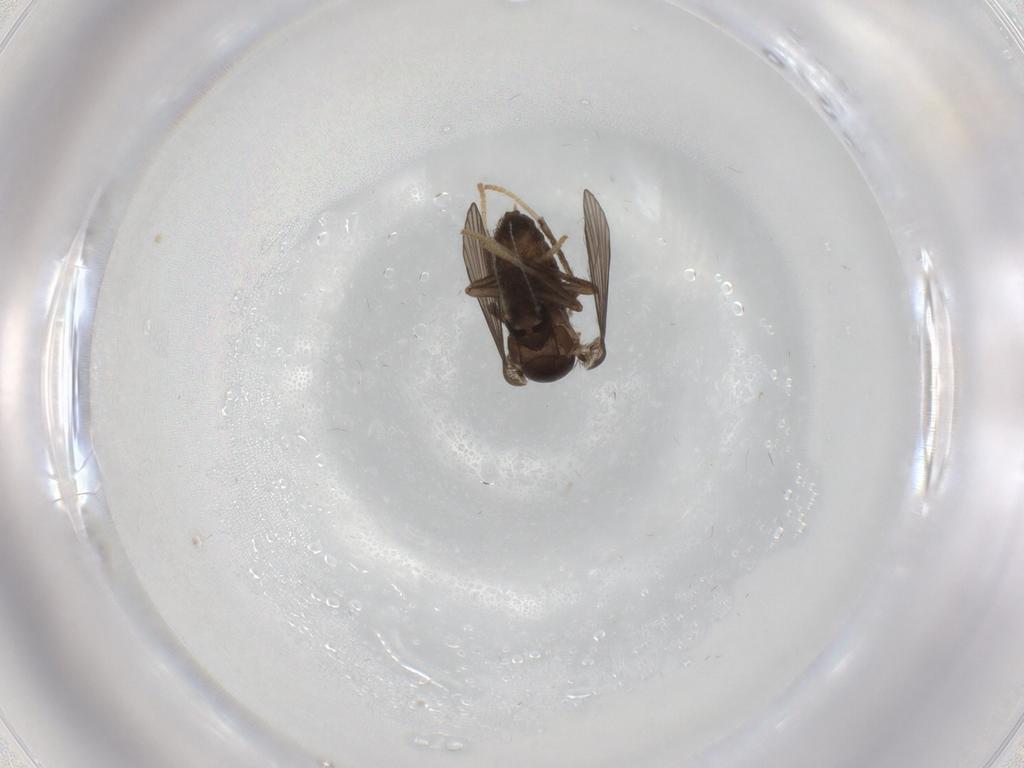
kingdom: Animalia
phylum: Arthropoda
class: Insecta
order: Diptera
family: Psychodidae
